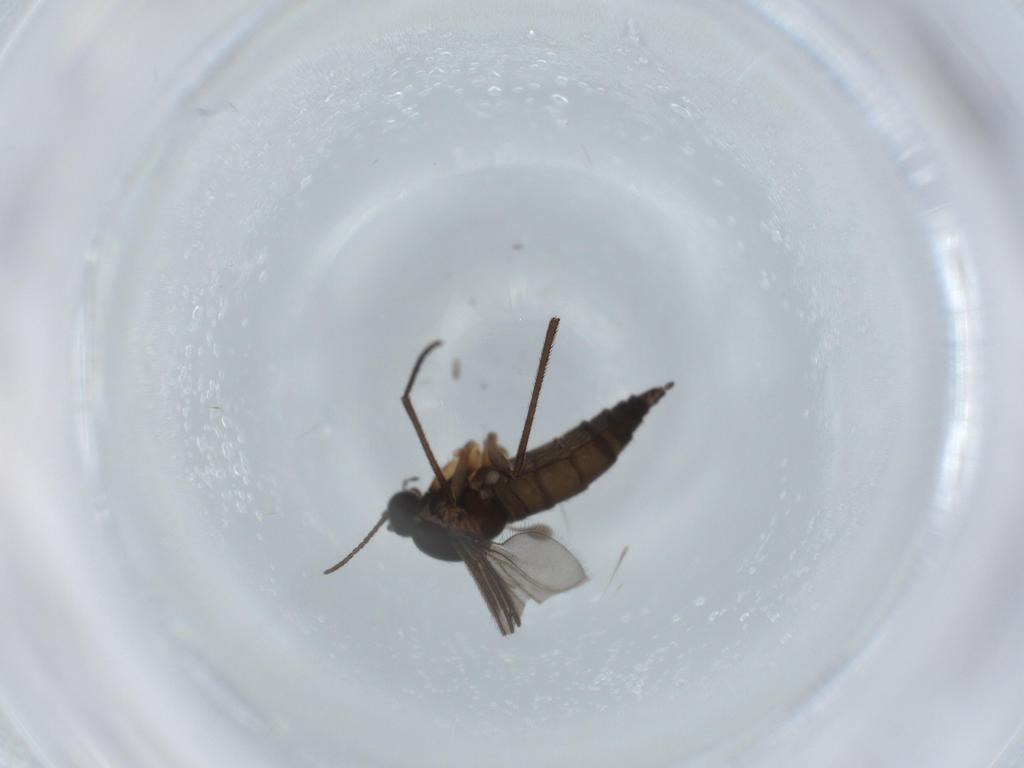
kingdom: Animalia
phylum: Arthropoda
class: Insecta
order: Diptera
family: Sciaridae
